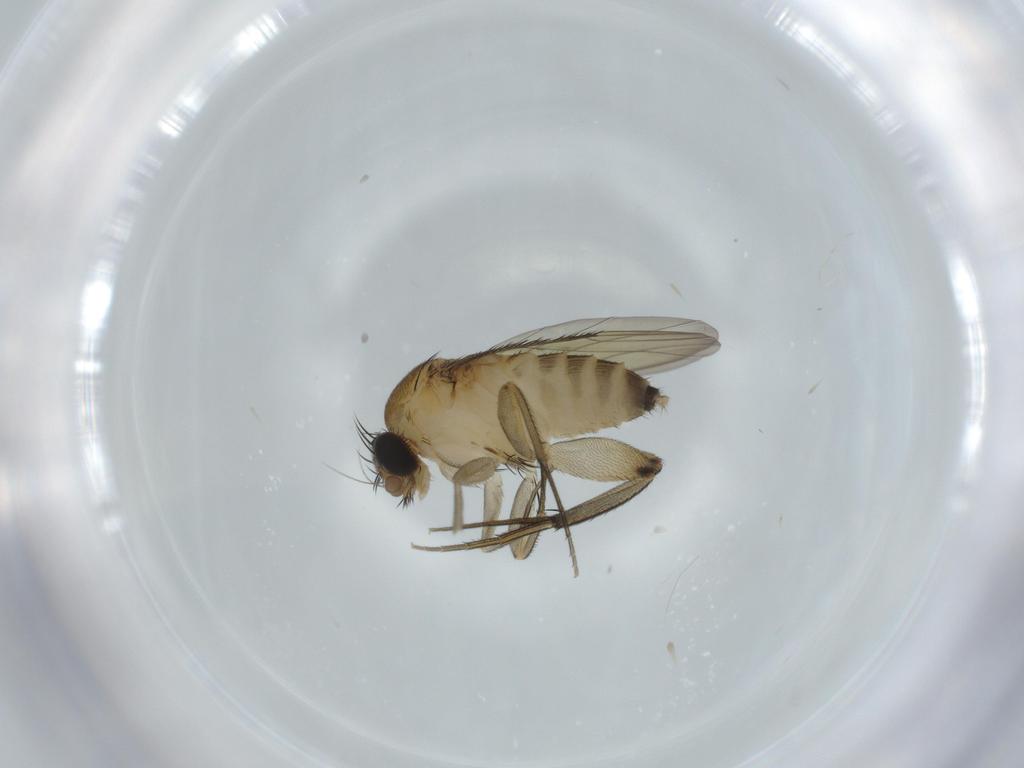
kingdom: Animalia
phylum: Arthropoda
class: Insecta
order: Diptera
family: Phoridae
